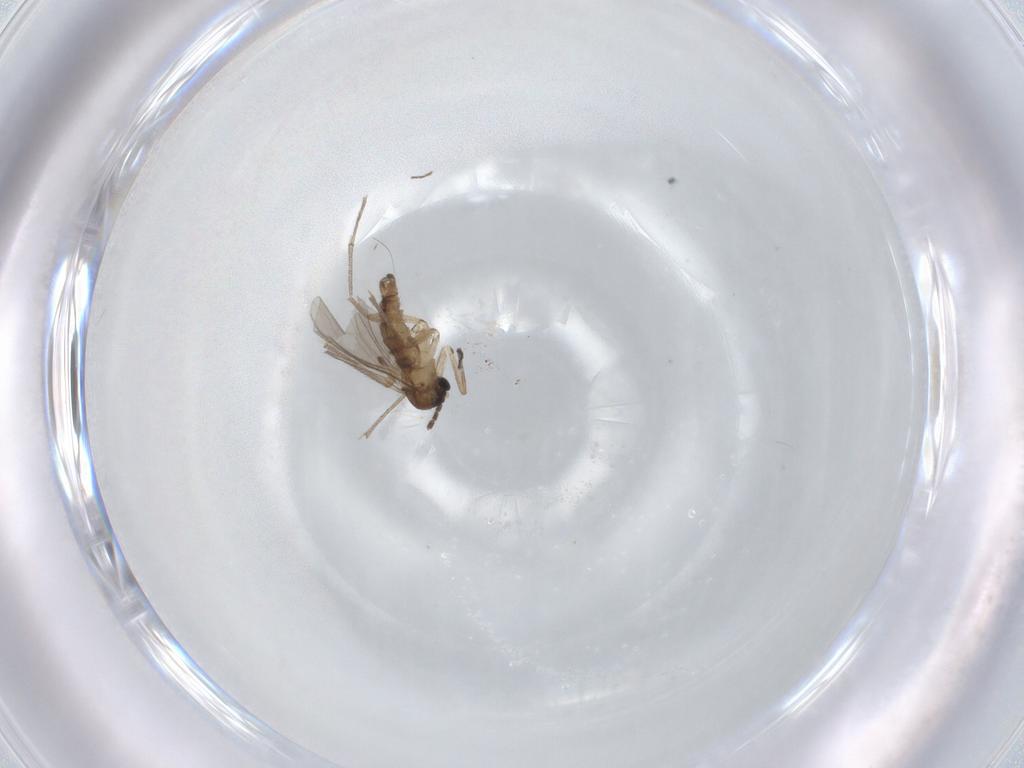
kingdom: Animalia
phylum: Arthropoda
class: Insecta
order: Diptera
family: Sciaridae
